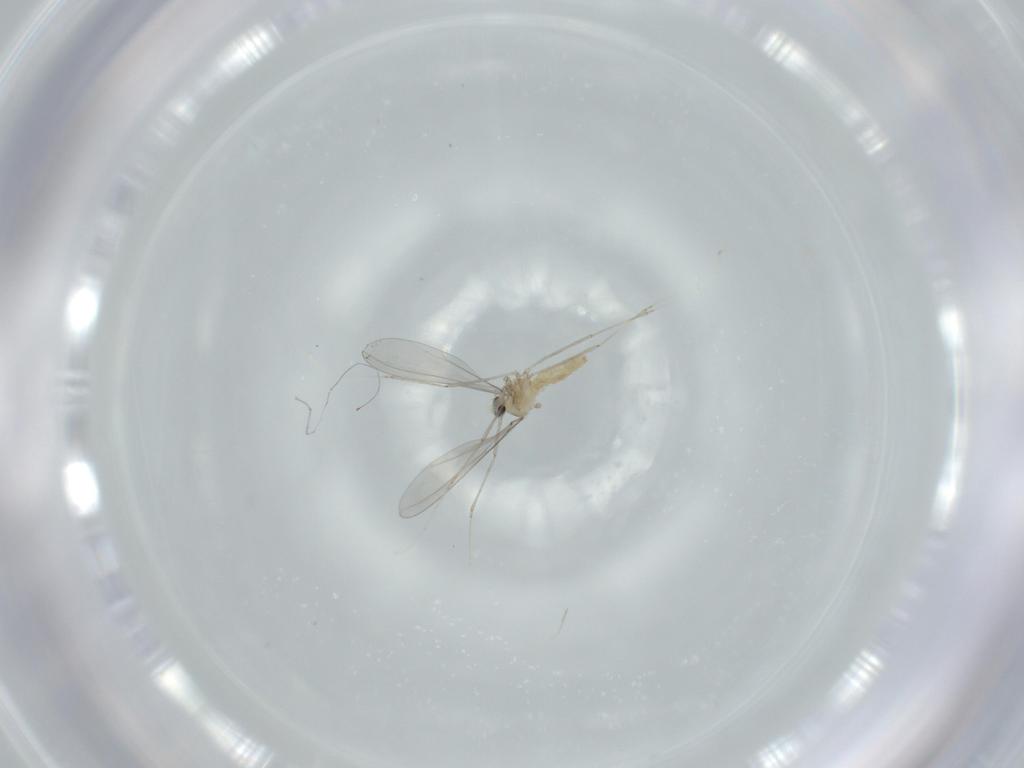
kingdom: Animalia
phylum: Arthropoda
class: Insecta
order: Diptera
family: Cecidomyiidae
